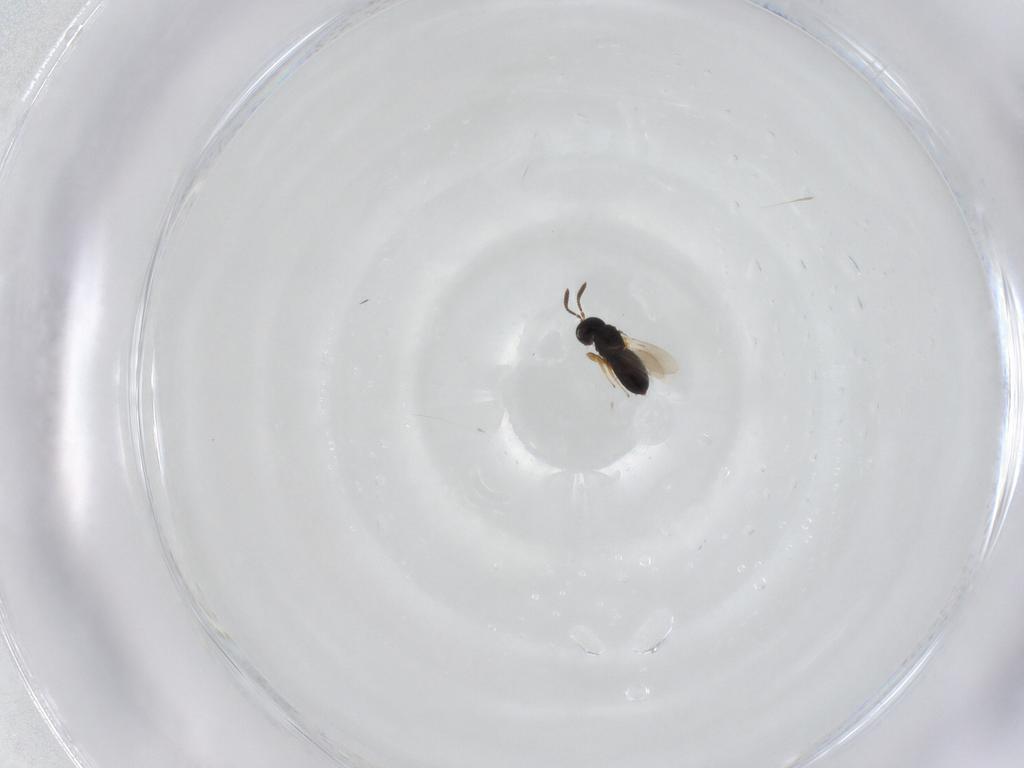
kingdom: Animalia
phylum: Arthropoda
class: Insecta
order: Hymenoptera
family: Scelionidae
